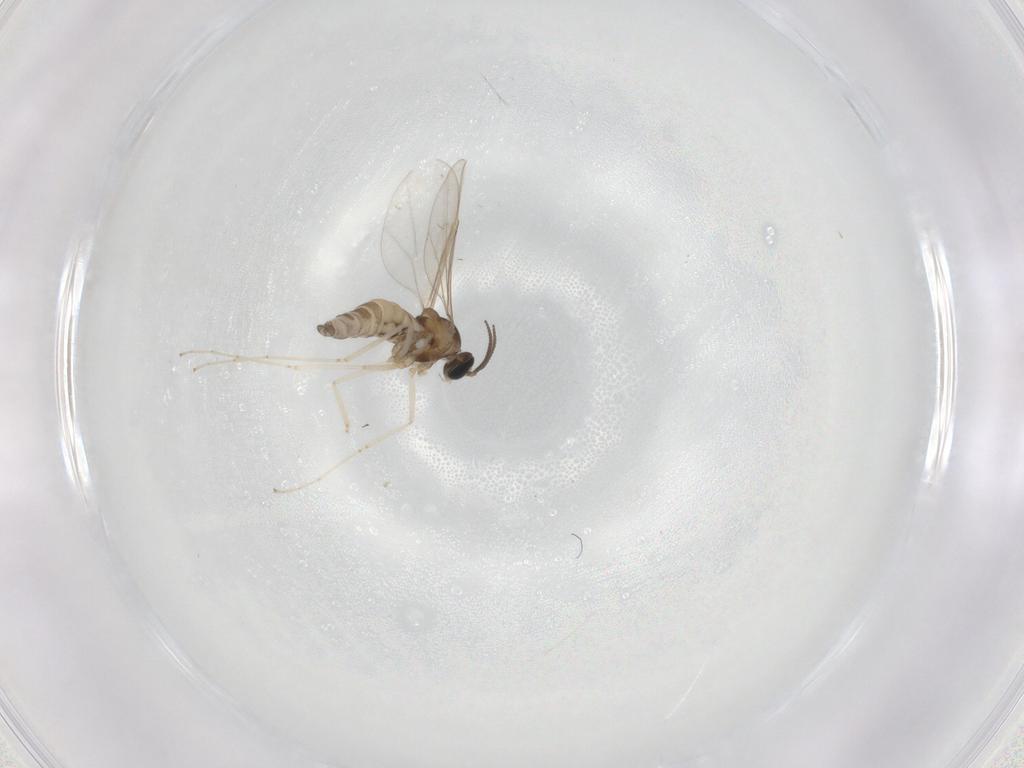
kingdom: Animalia
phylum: Arthropoda
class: Insecta
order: Diptera
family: Cecidomyiidae
